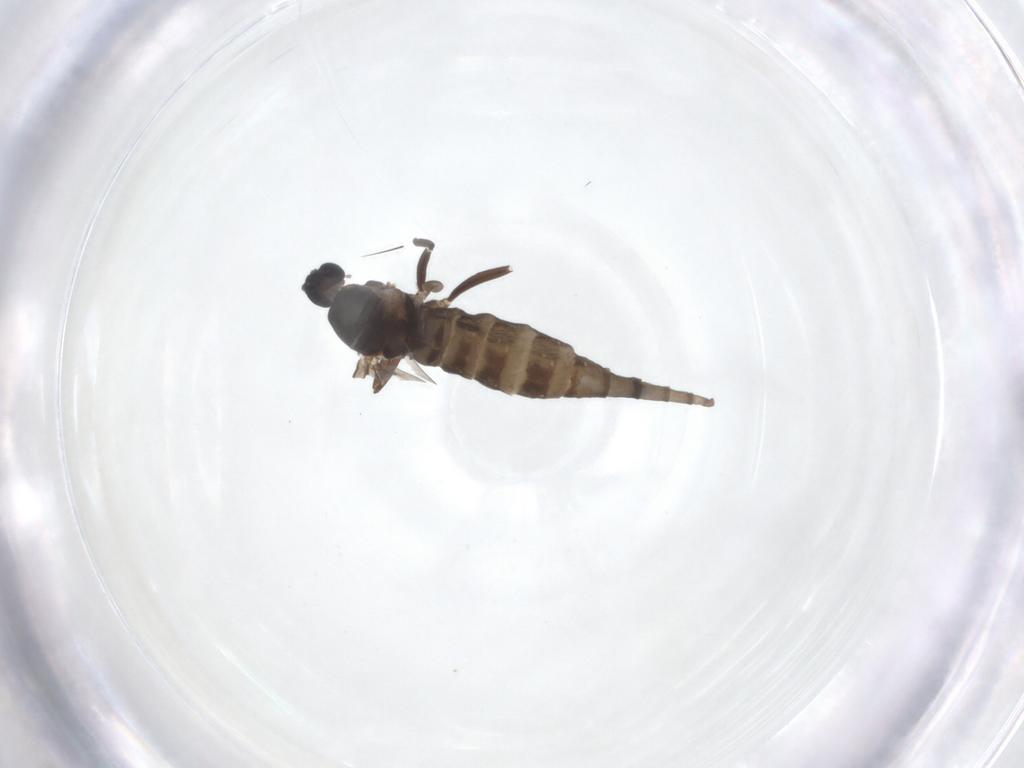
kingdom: Animalia
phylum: Arthropoda
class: Insecta
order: Diptera
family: Cecidomyiidae
